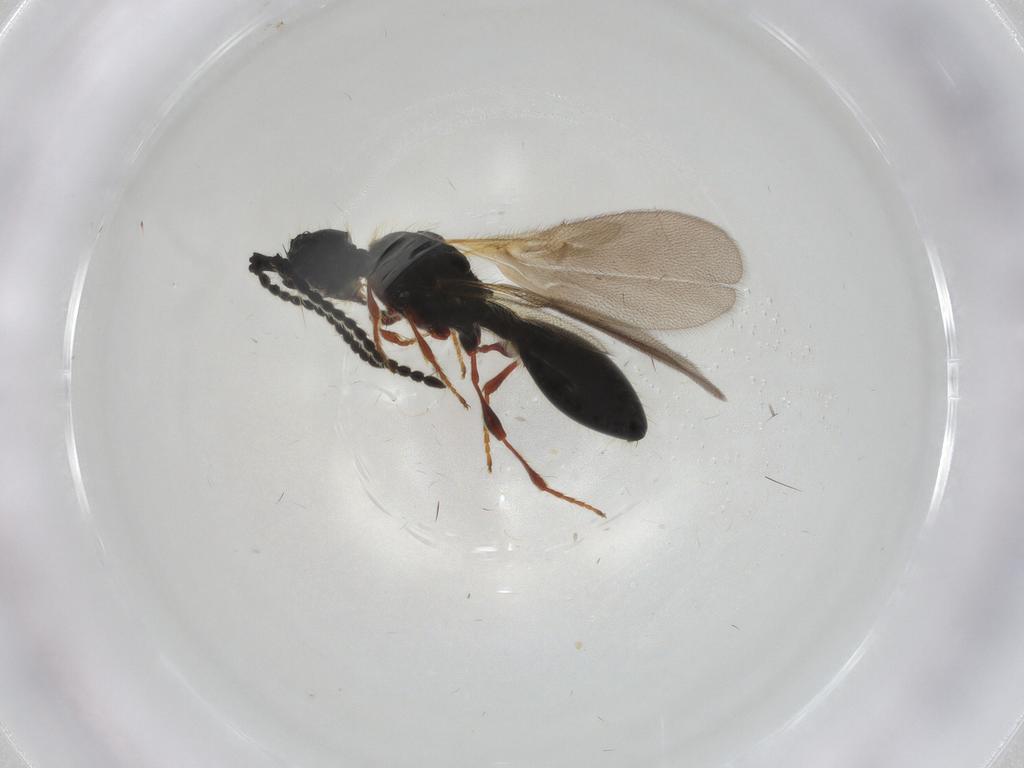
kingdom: Animalia
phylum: Arthropoda
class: Insecta
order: Hymenoptera
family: Diapriidae
